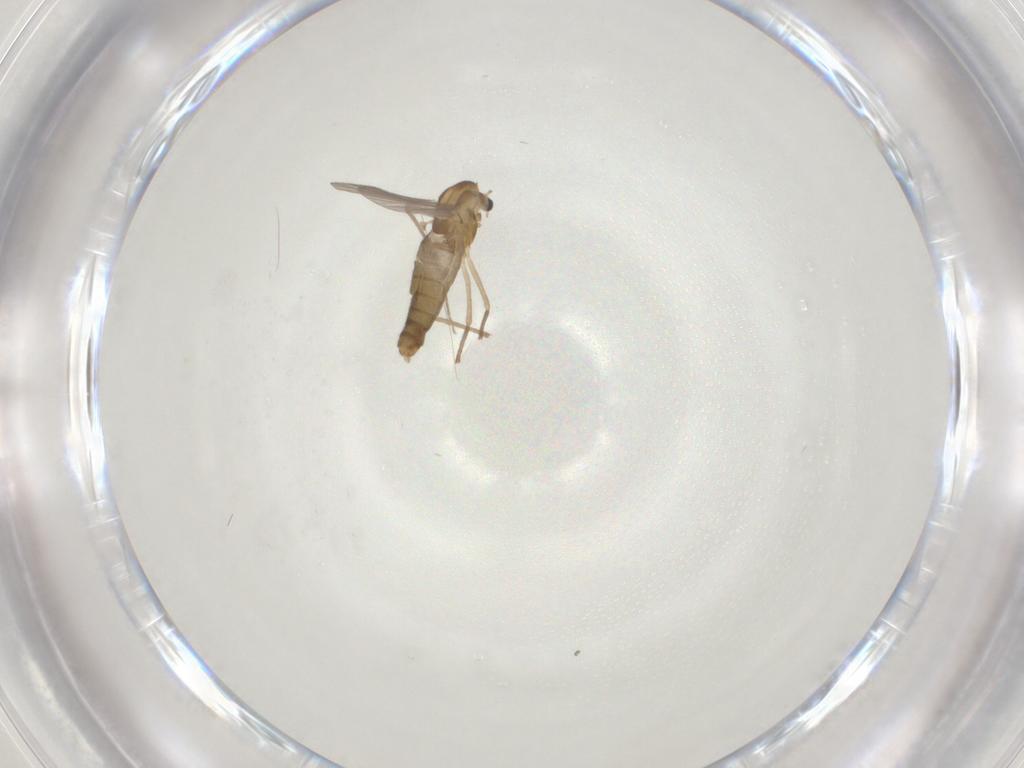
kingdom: Animalia
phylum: Arthropoda
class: Insecta
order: Diptera
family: Chironomidae
